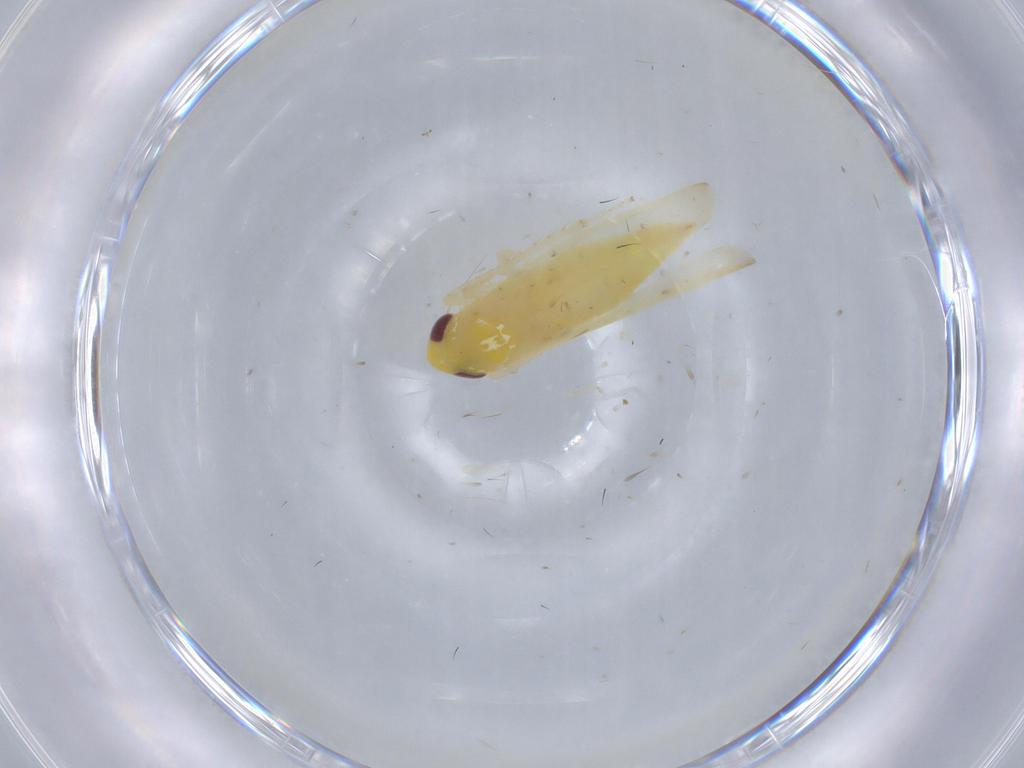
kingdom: Animalia
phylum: Arthropoda
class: Insecta
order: Hemiptera
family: Cicadellidae
